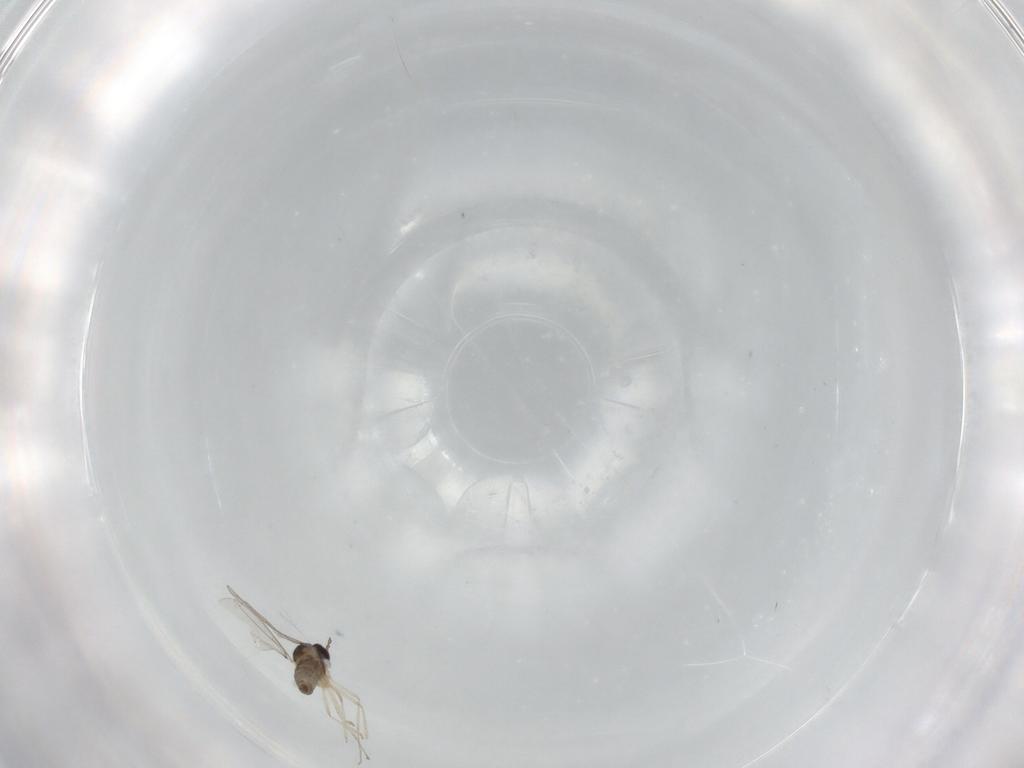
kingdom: Animalia
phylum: Arthropoda
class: Insecta
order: Diptera
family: Cecidomyiidae
